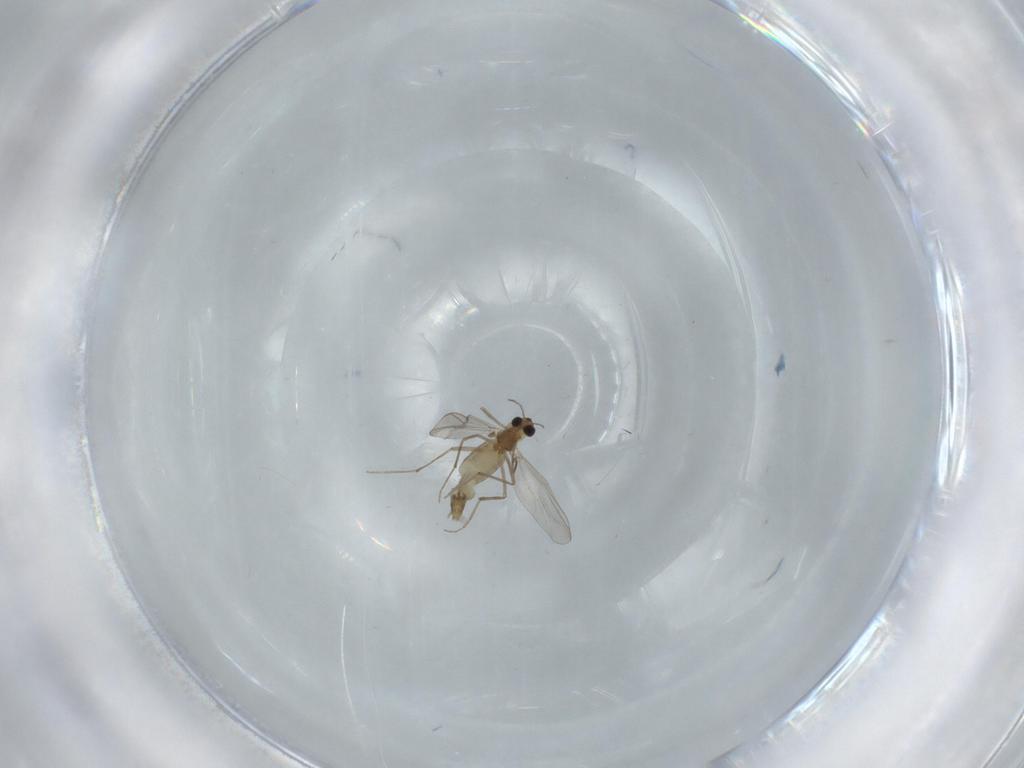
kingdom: Animalia
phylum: Arthropoda
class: Insecta
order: Diptera
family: Chironomidae
